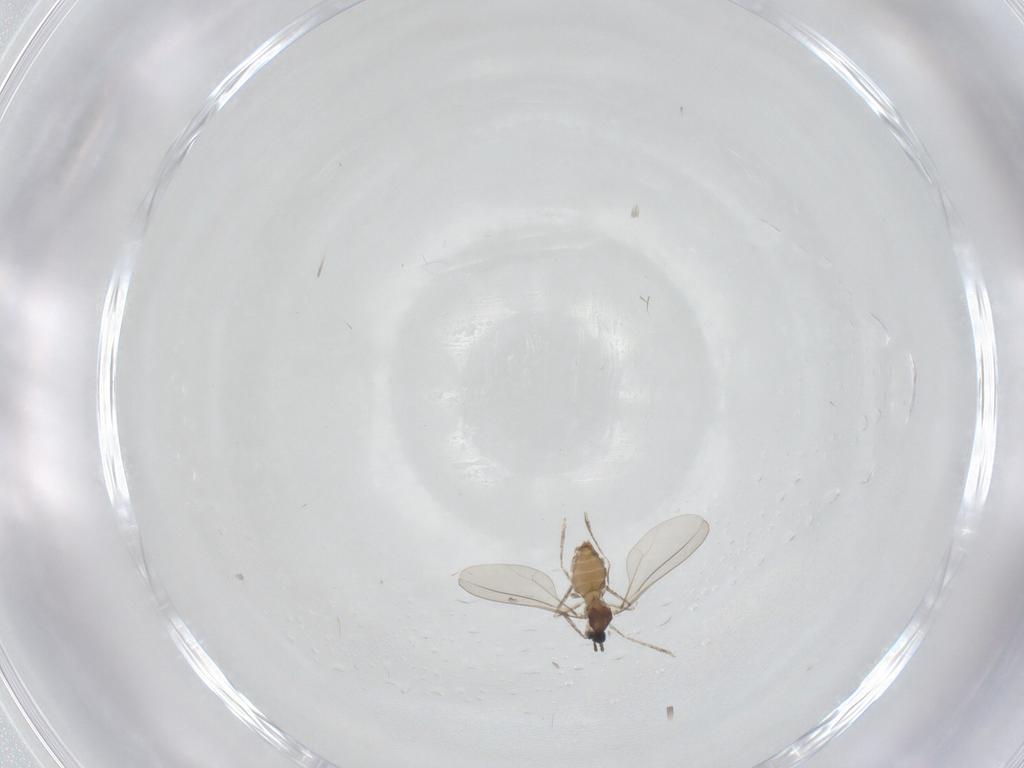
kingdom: Animalia
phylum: Arthropoda
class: Insecta
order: Diptera
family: Cecidomyiidae
